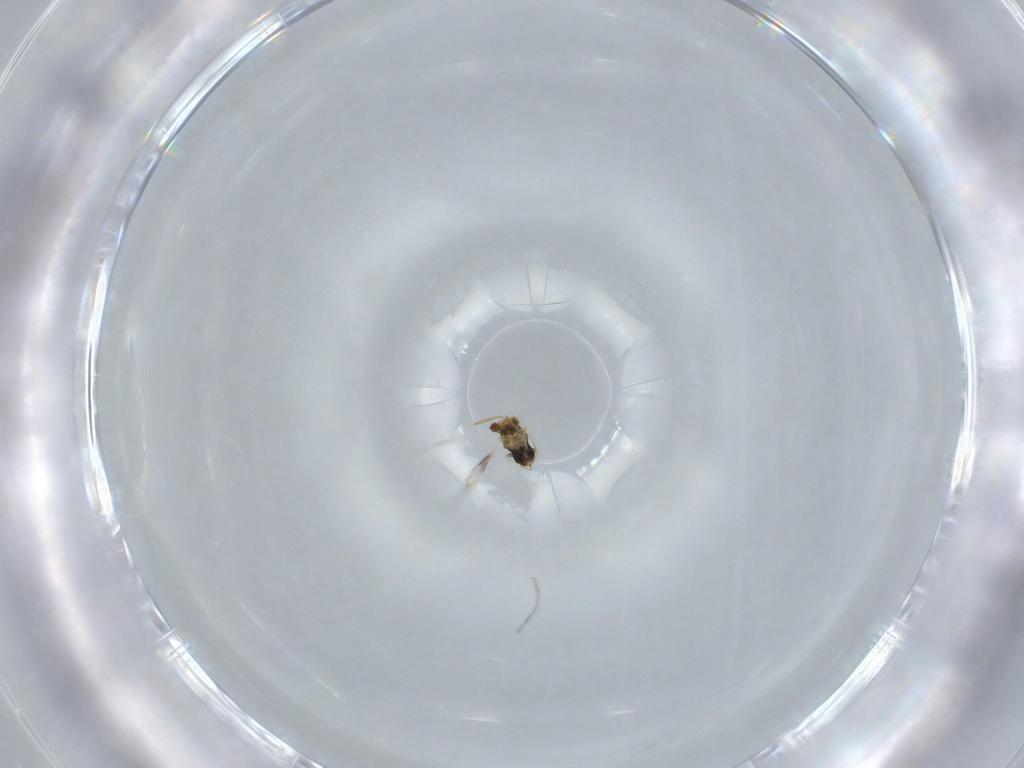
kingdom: Animalia
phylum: Arthropoda
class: Insecta
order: Hymenoptera
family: Aphelinidae
